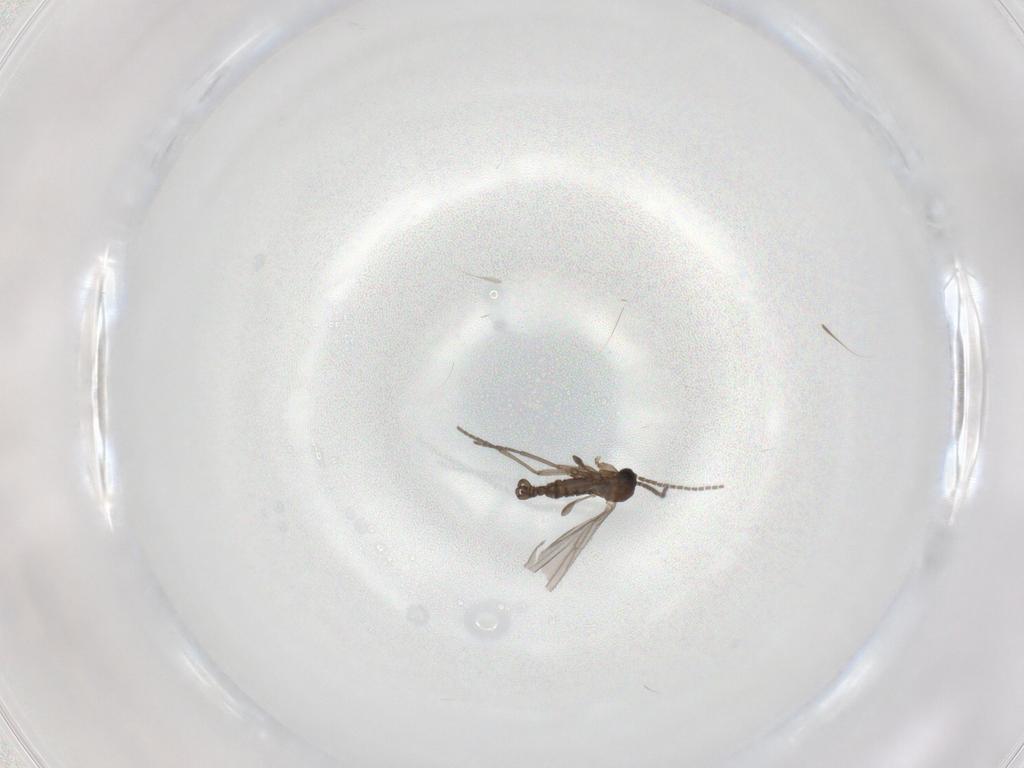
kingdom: Animalia
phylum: Arthropoda
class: Insecta
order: Diptera
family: Sciaridae
